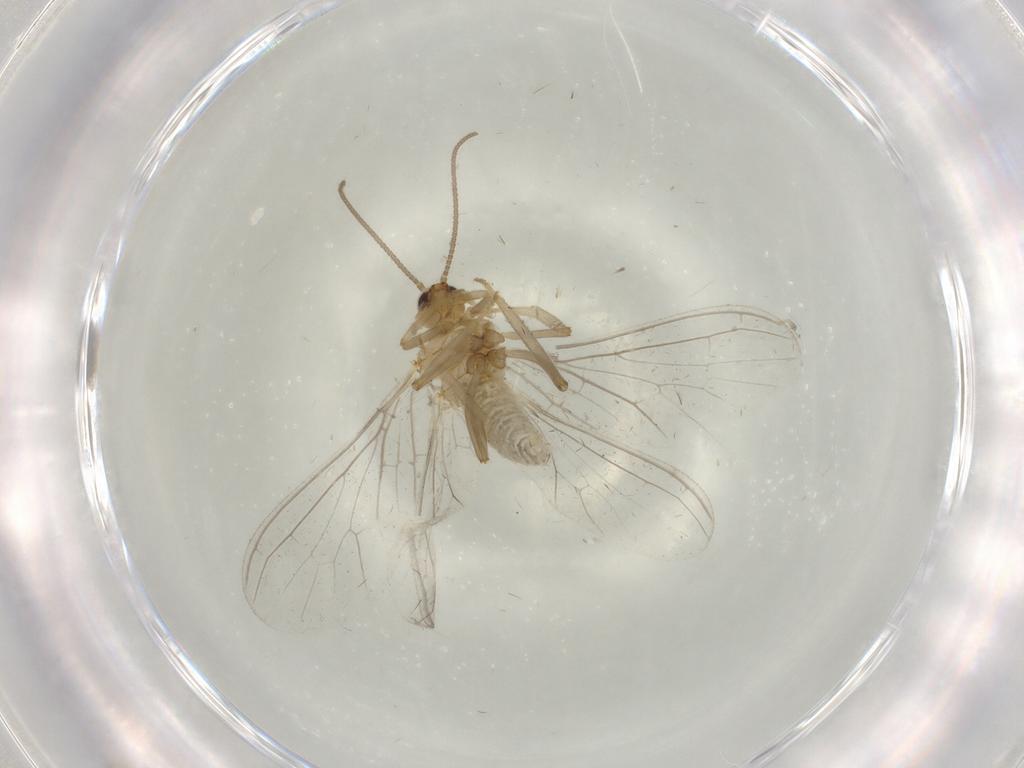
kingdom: Animalia
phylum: Arthropoda
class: Insecta
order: Neuroptera
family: Coniopterygidae
